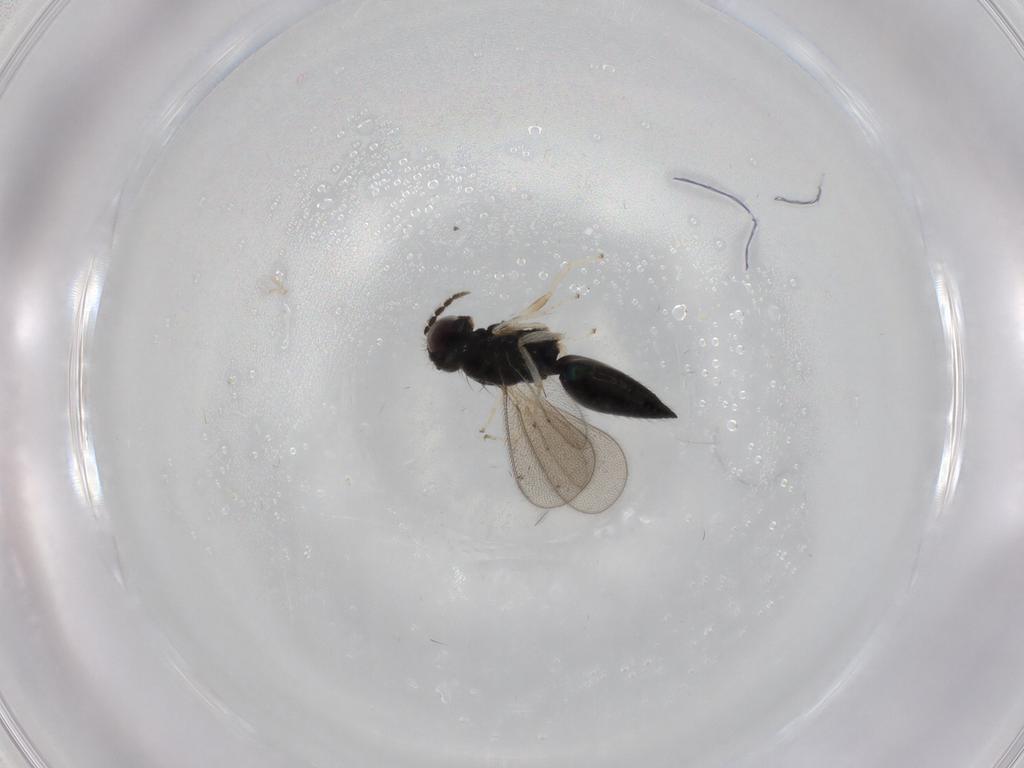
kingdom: Animalia
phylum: Arthropoda
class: Insecta
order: Hymenoptera
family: Eulophidae
